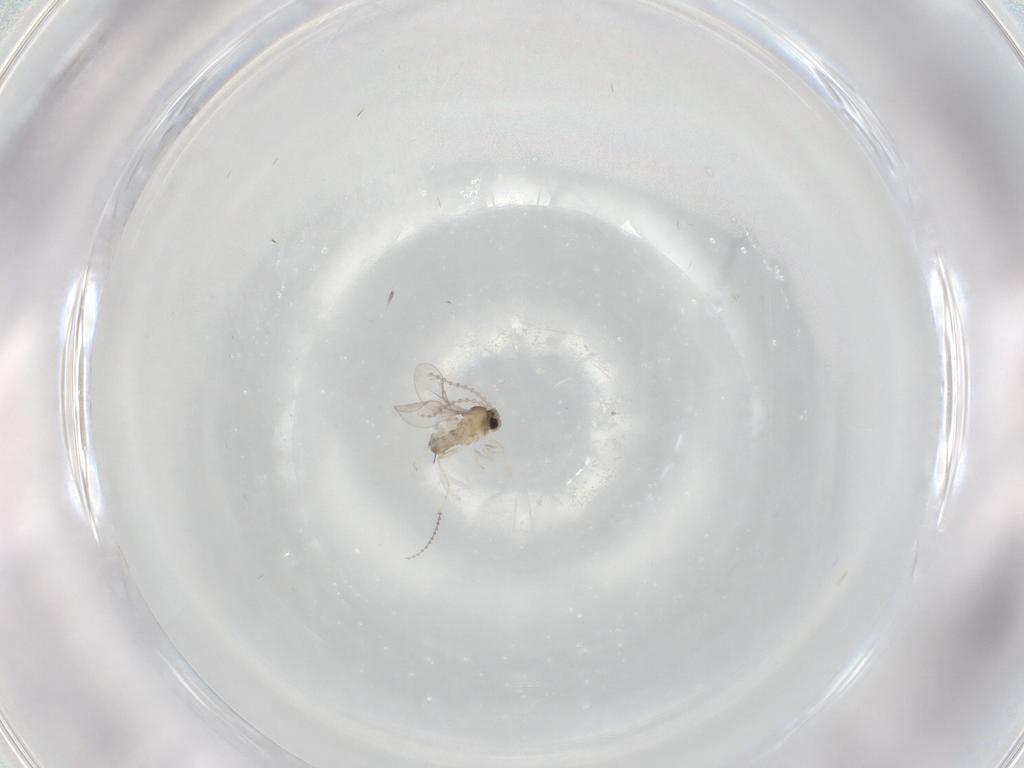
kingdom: Animalia
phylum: Arthropoda
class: Insecta
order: Diptera
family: Cecidomyiidae
